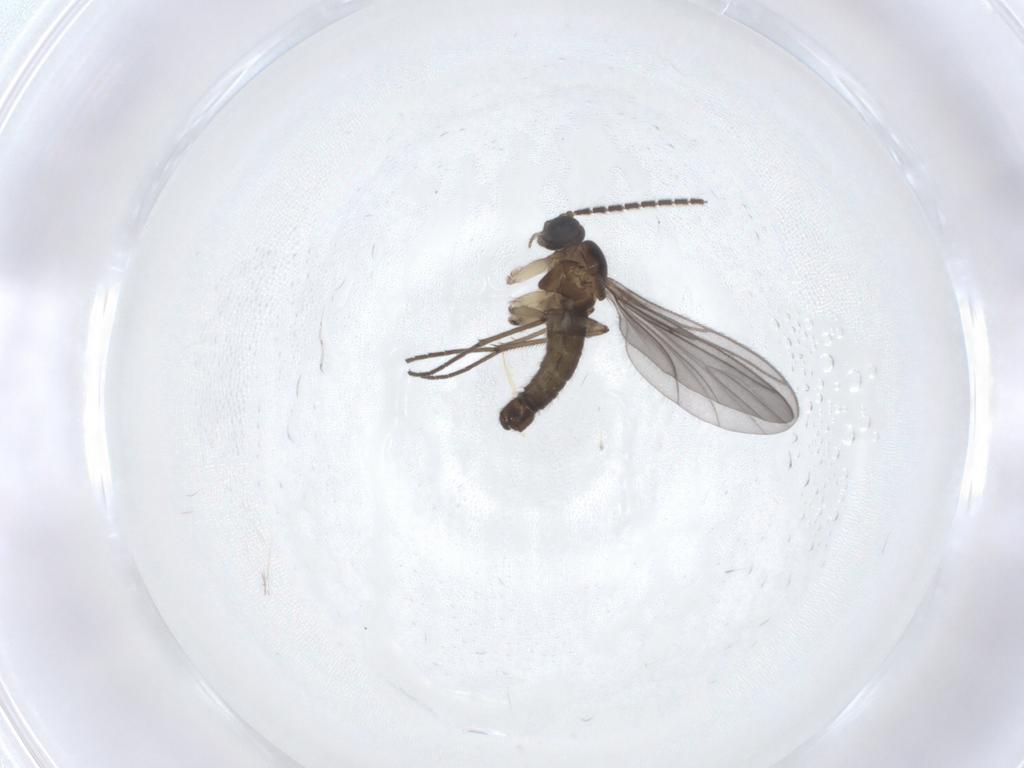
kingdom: Animalia
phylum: Arthropoda
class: Insecta
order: Diptera
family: Sciaridae
